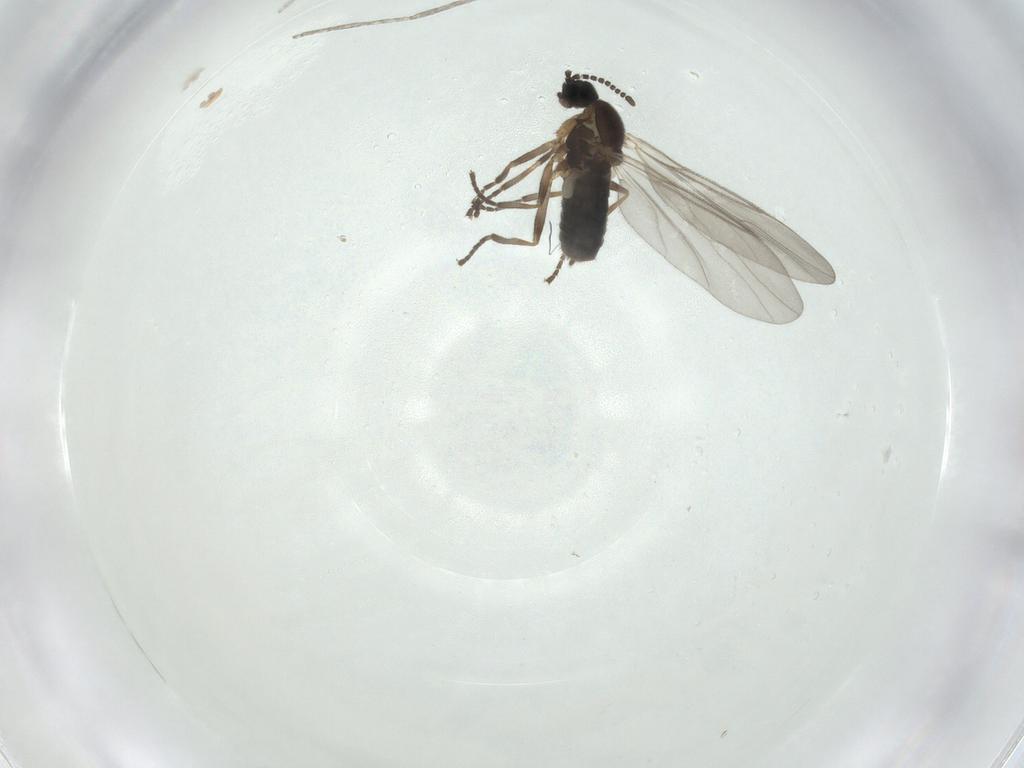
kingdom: Animalia
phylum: Arthropoda
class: Insecta
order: Diptera
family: Scatopsidae
